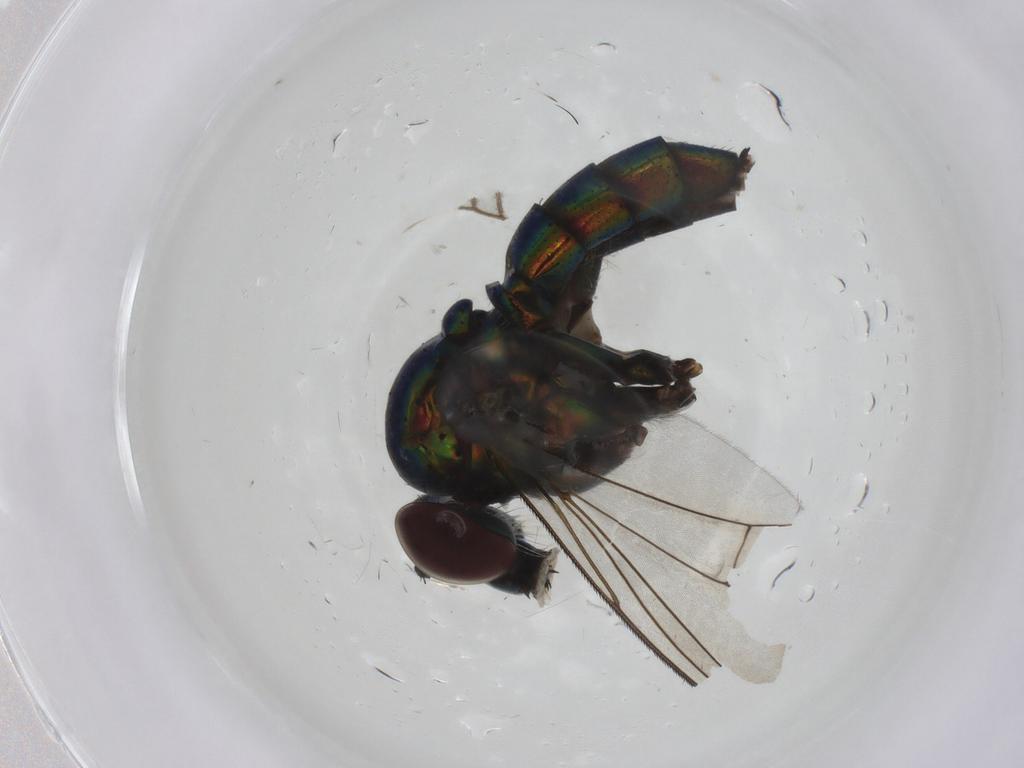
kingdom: Animalia
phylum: Arthropoda
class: Insecta
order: Diptera
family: Dolichopodidae
